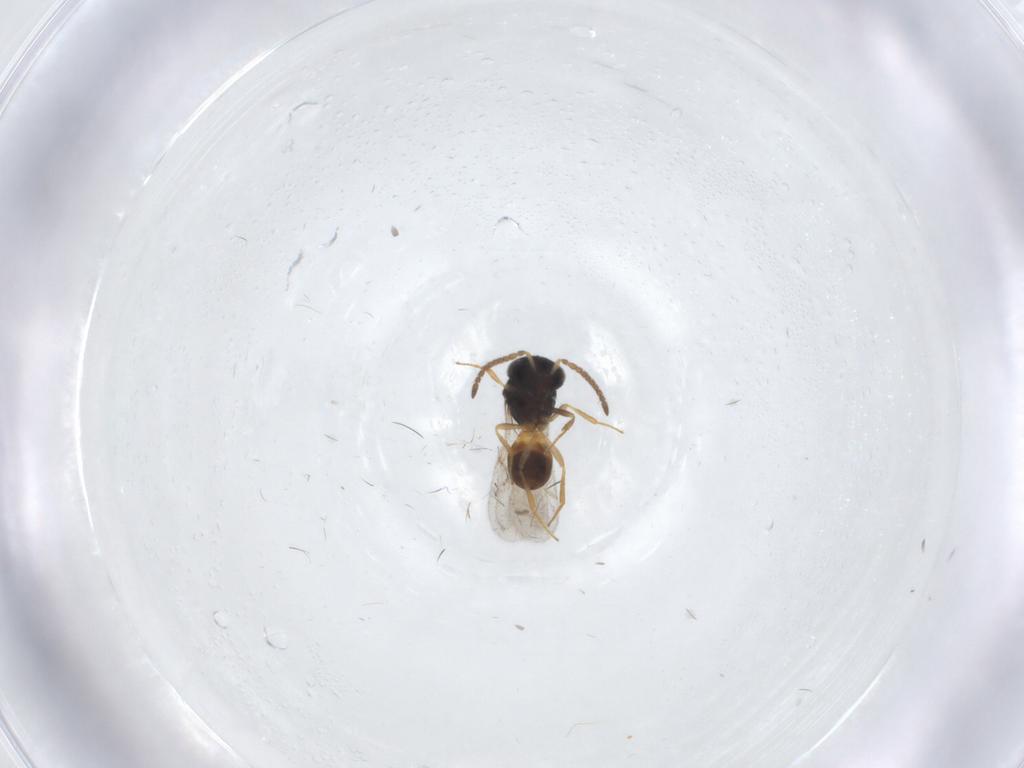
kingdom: Animalia
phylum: Arthropoda
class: Insecta
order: Hymenoptera
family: Scelionidae
